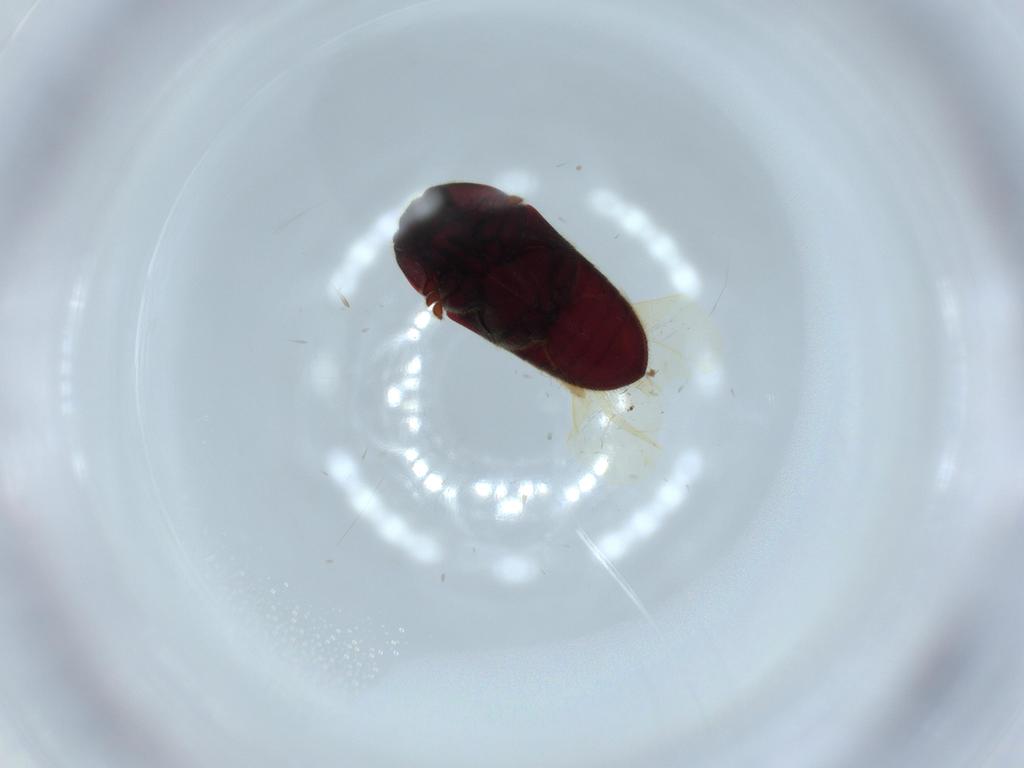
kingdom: Animalia
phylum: Arthropoda
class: Insecta
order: Coleoptera
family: Throscidae
